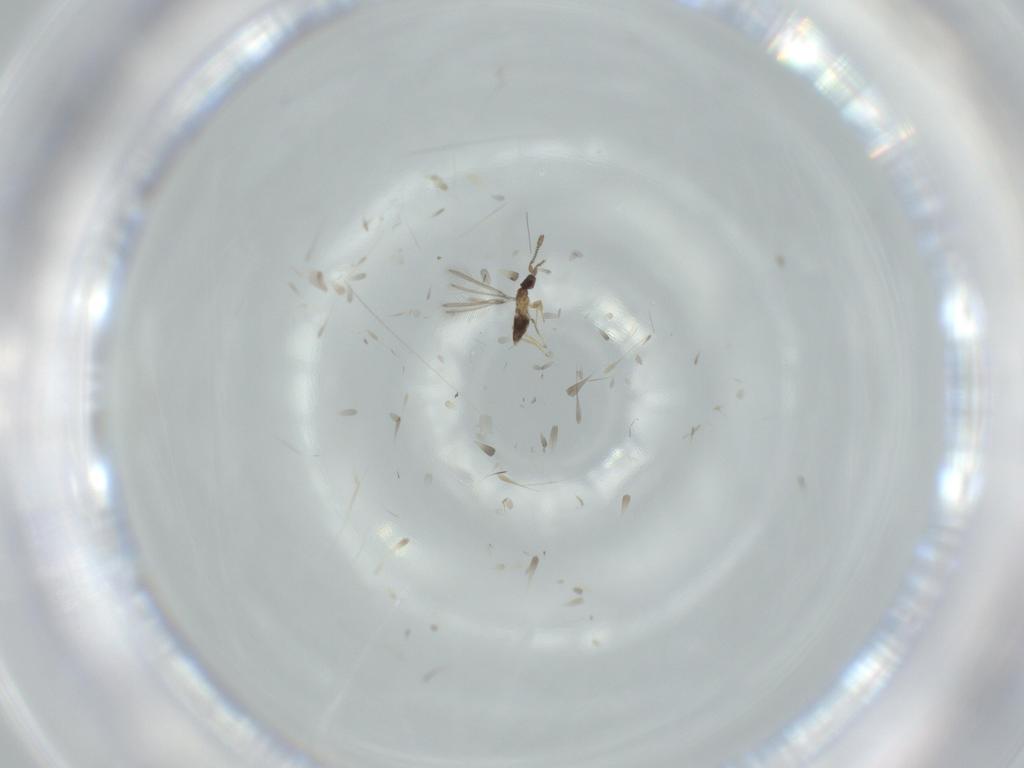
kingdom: Animalia
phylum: Arthropoda
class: Insecta
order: Hymenoptera
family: Mymaridae
